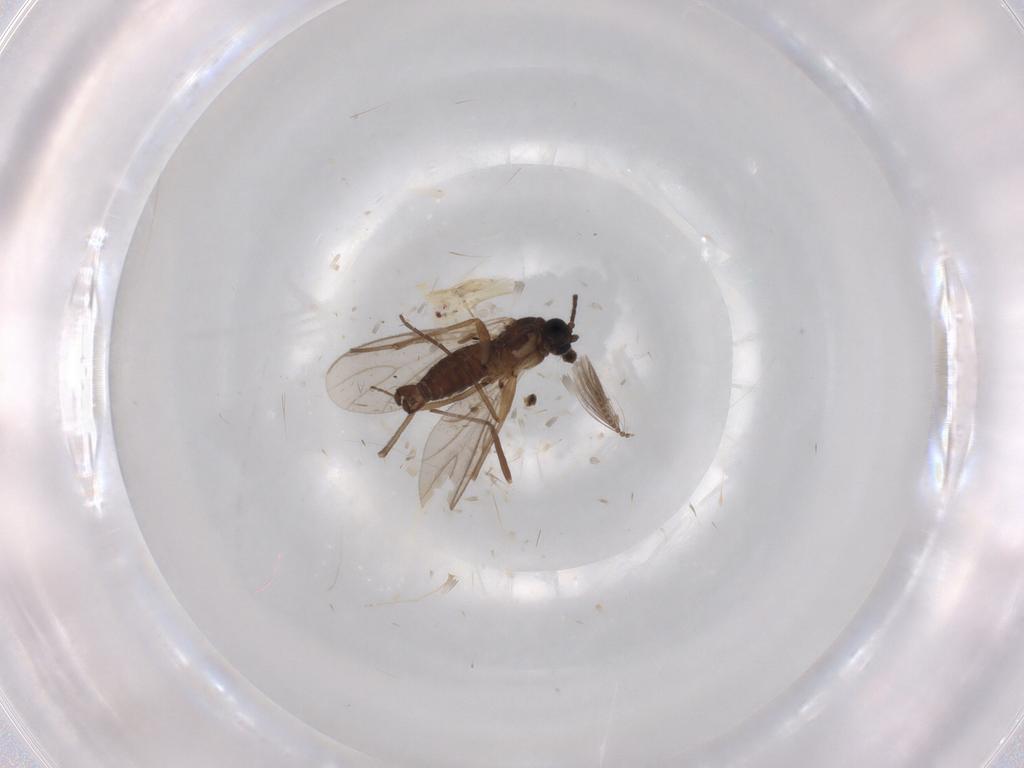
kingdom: Animalia
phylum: Arthropoda
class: Insecta
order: Diptera
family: Sciaridae
